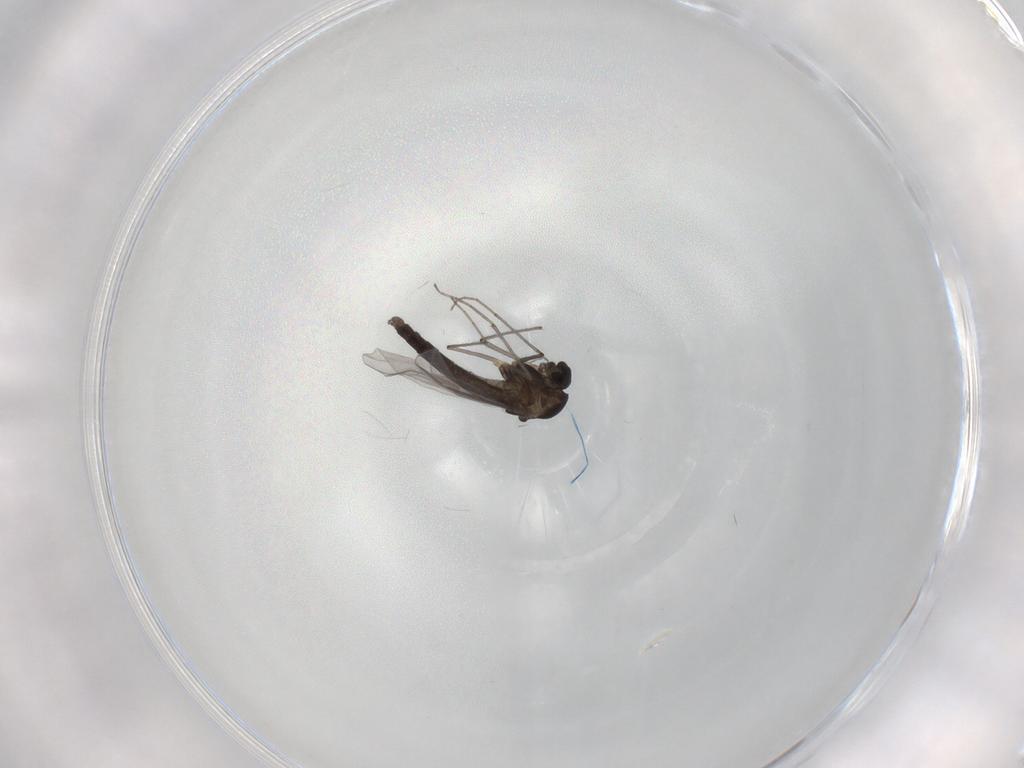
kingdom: Animalia
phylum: Arthropoda
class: Insecta
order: Diptera
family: Chironomidae
